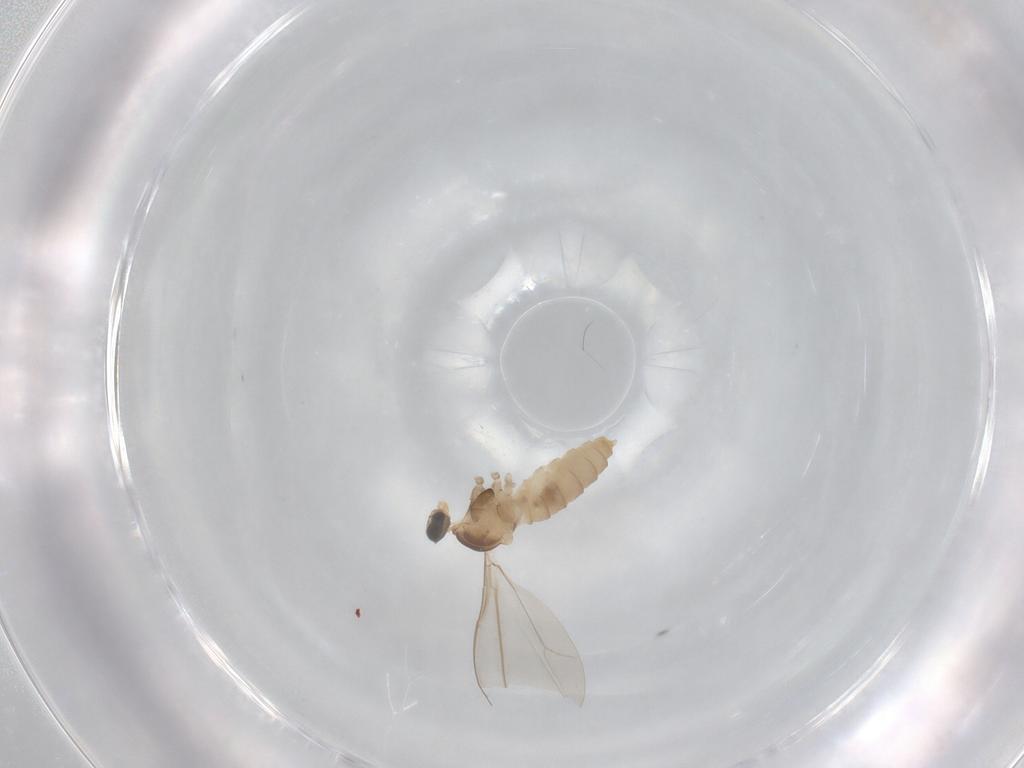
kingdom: Animalia
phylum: Arthropoda
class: Insecta
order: Diptera
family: Cecidomyiidae
